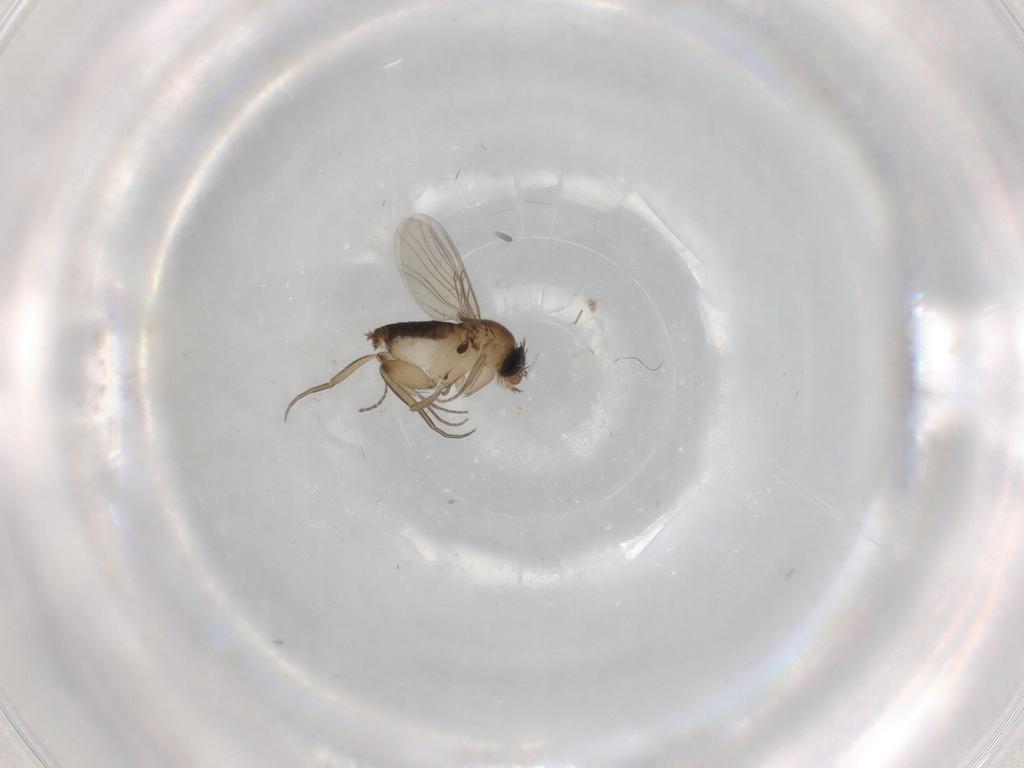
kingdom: Animalia
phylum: Arthropoda
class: Insecta
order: Diptera
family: Phoridae
